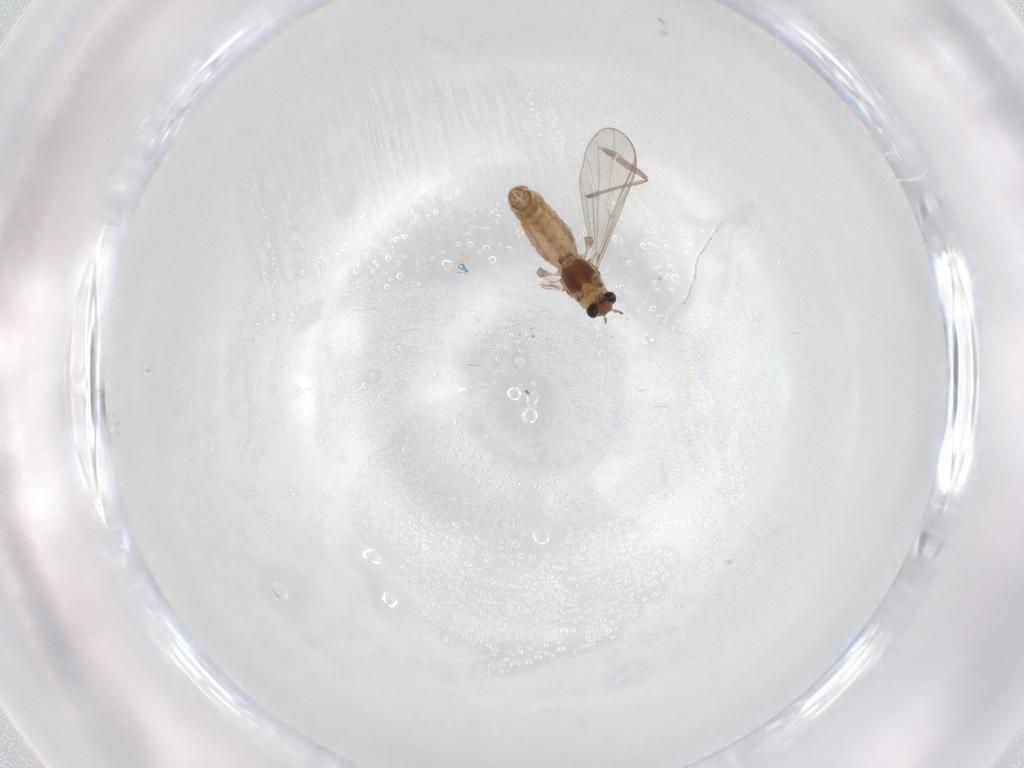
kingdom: Animalia
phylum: Arthropoda
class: Insecta
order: Diptera
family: Chironomidae
